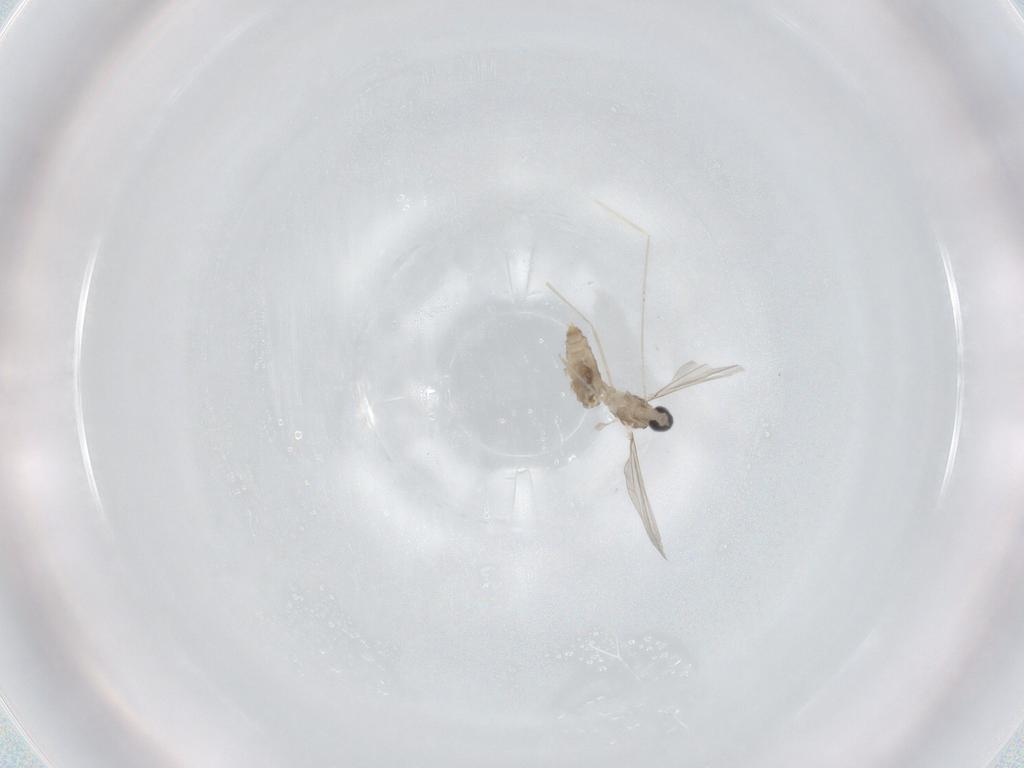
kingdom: Animalia
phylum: Arthropoda
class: Insecta
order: Diptera
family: Cecidomyiidae
